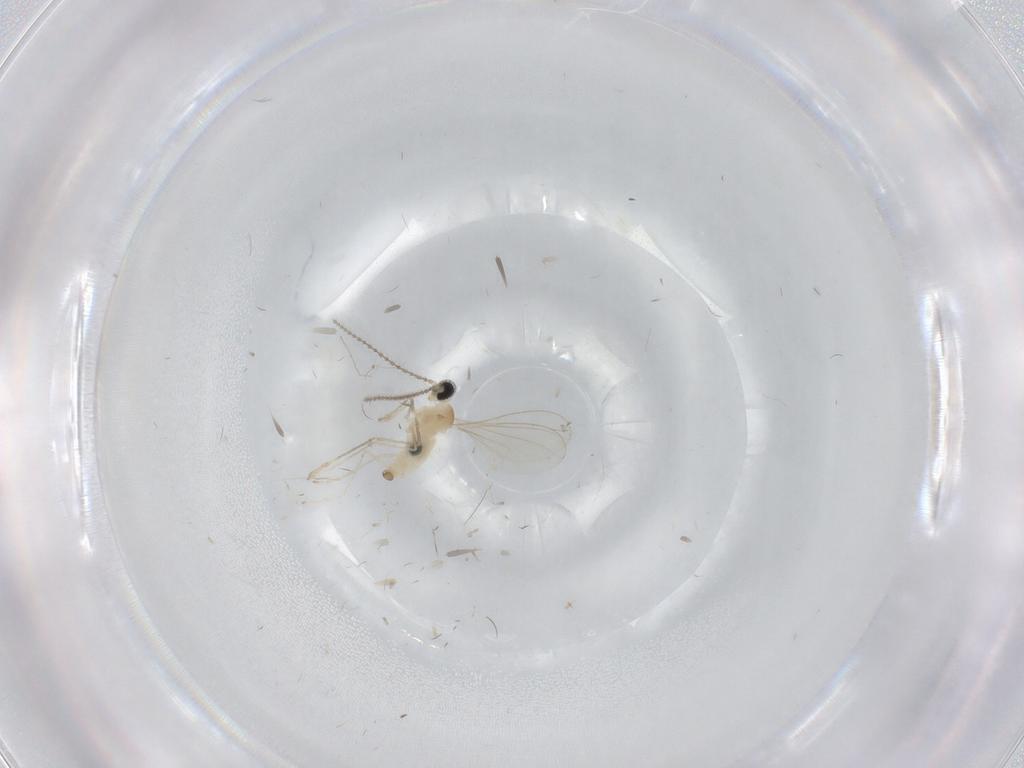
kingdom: Animalia
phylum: Arthropoda
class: Insecta
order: Diptera
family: Chironomidae
